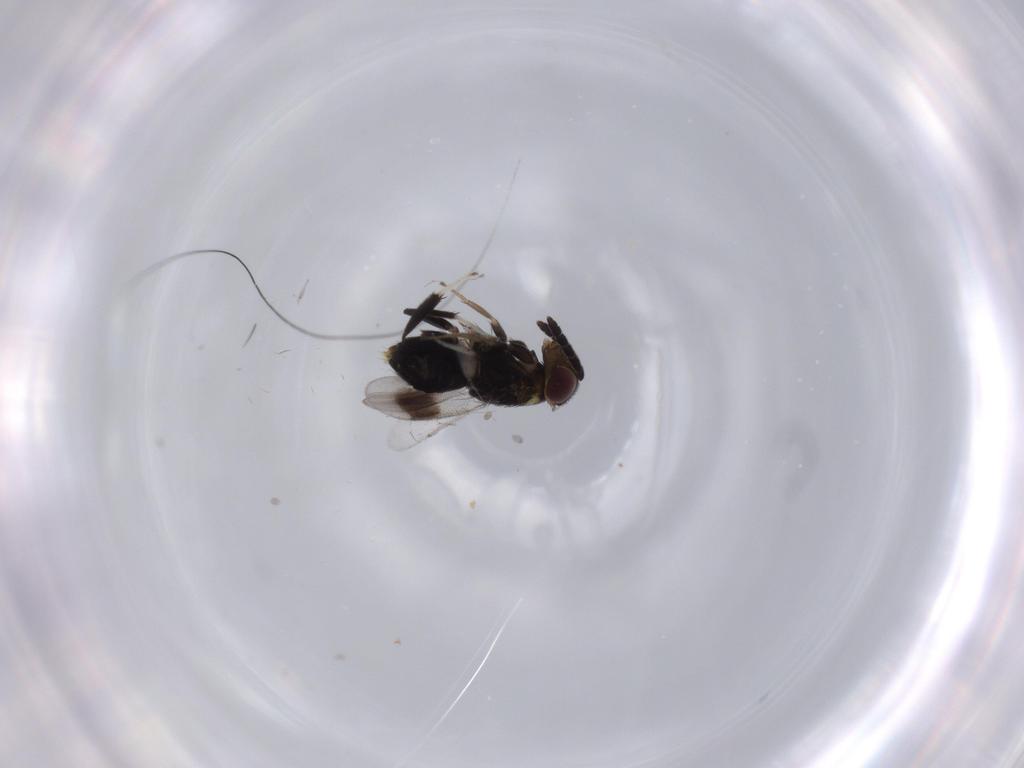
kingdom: Animalia
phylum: Arthropoda
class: Insecta
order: Hymenoptera
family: Aphelinidae
